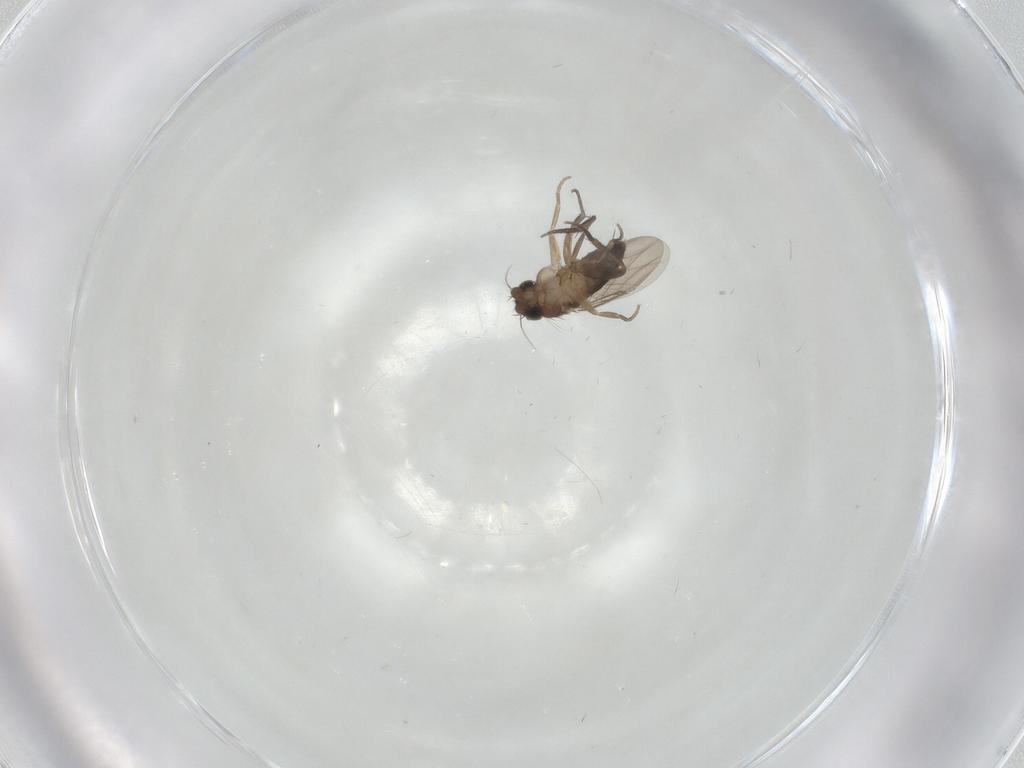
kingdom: Animalia
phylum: Arthropoda
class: Insecta
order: Diptera
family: Phoridae
